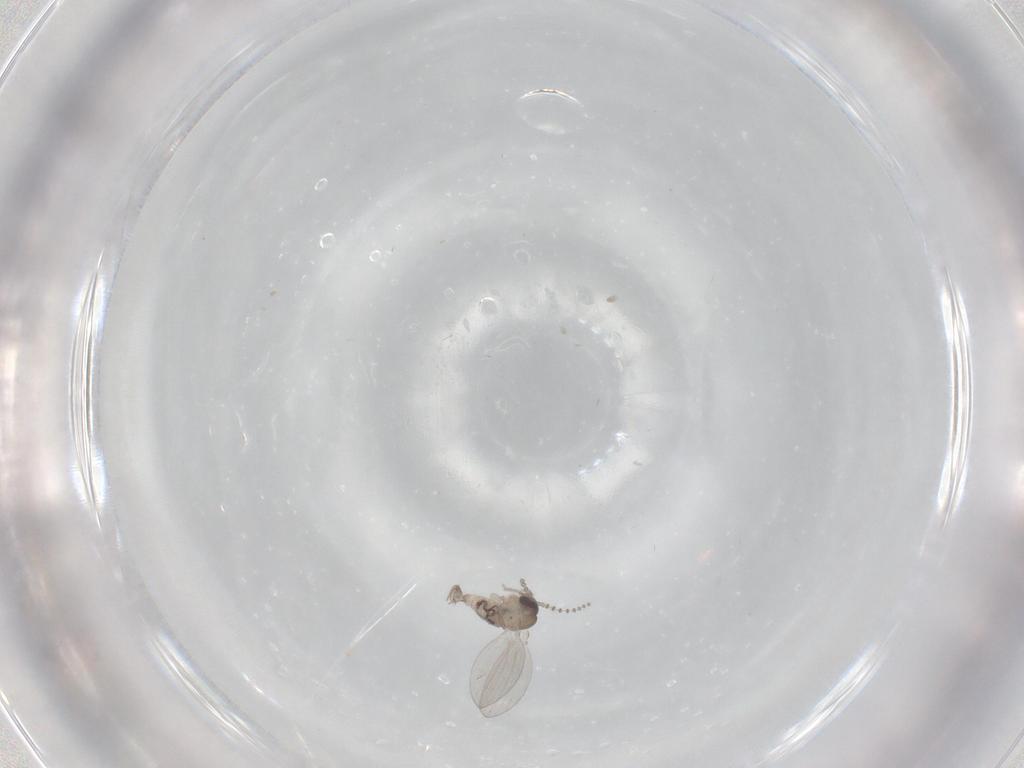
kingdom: Animalia
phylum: Arthropoda
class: Insecta
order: Diptera
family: Psychodidae
